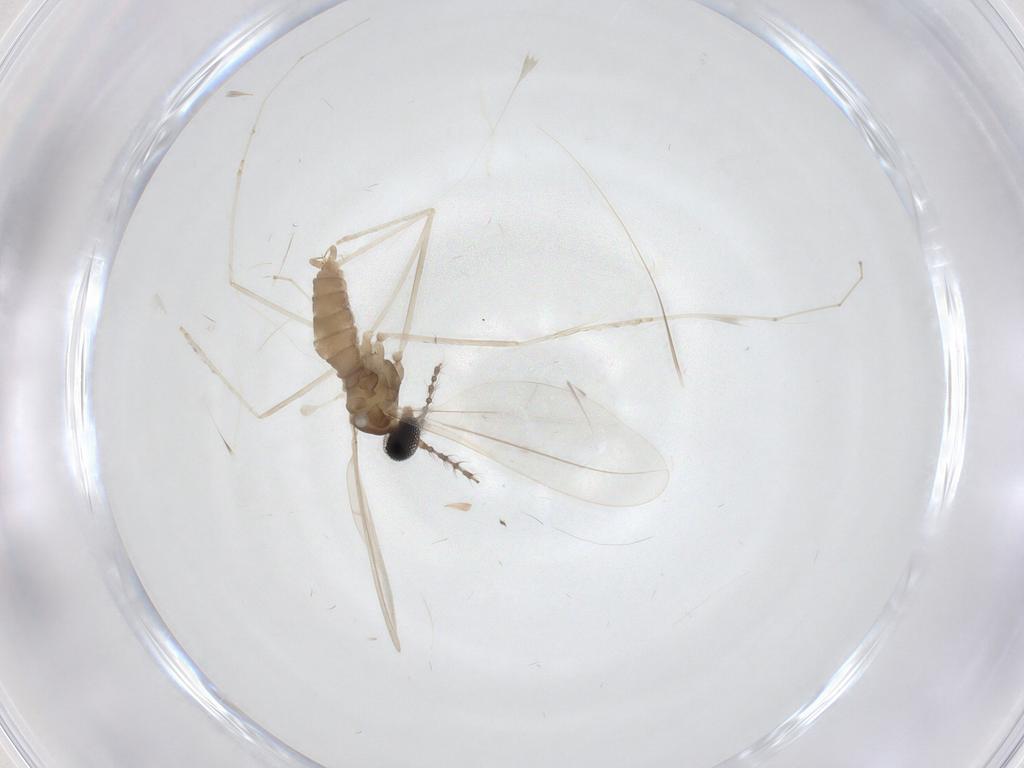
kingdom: Animalia
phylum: Arthropoda
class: Insecta
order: Diptera
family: Cecidomyiidae
